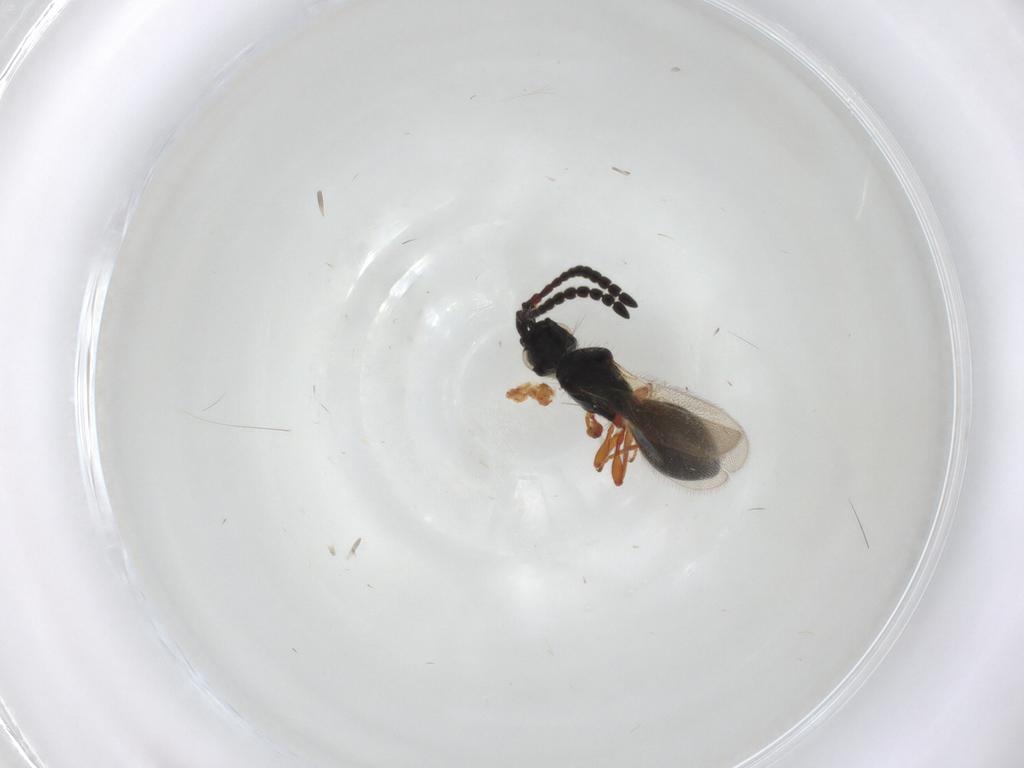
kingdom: Animalia
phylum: Arthropoda
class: Insecta
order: Hymenoptera
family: Diapriidae
